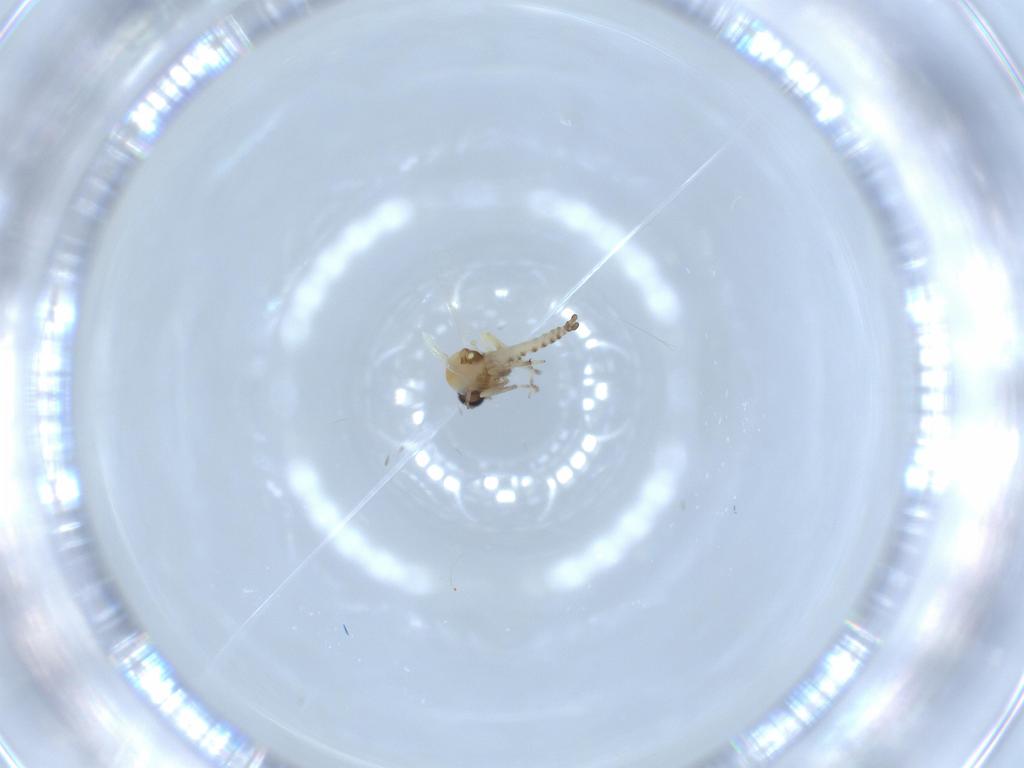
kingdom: Animalia
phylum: Arthropoda
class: Insecta
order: Diptera
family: Ceratopogonidae
